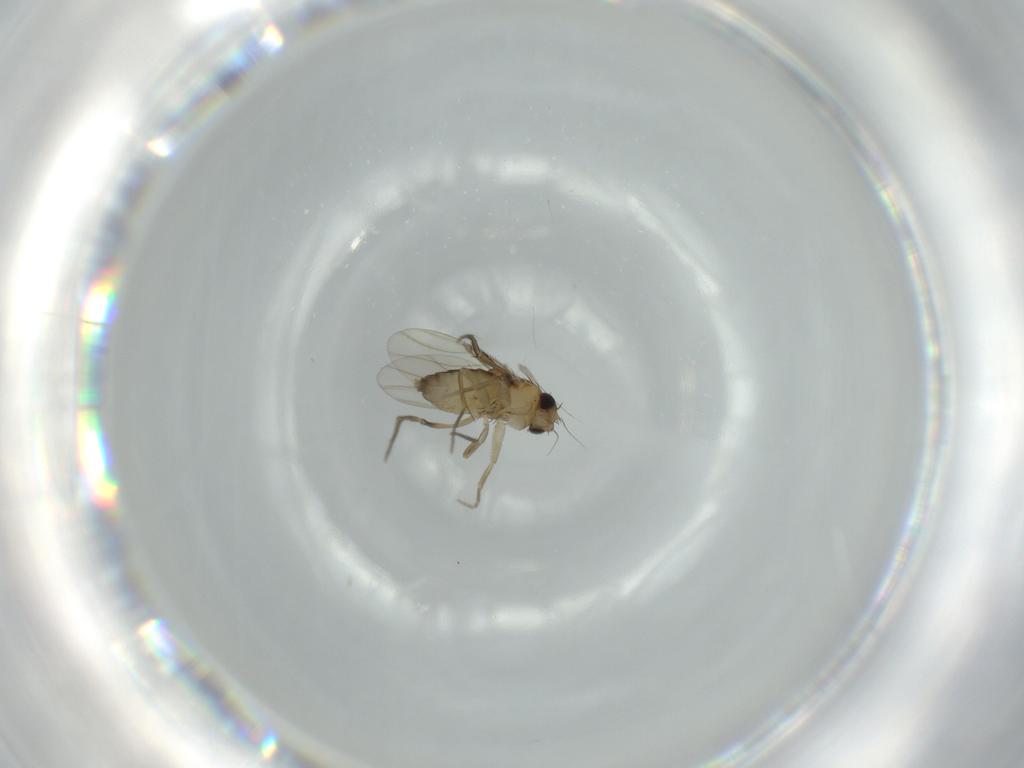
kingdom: Animalia
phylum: Arthropoda
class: Insecta
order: Diptera
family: Phoridae
